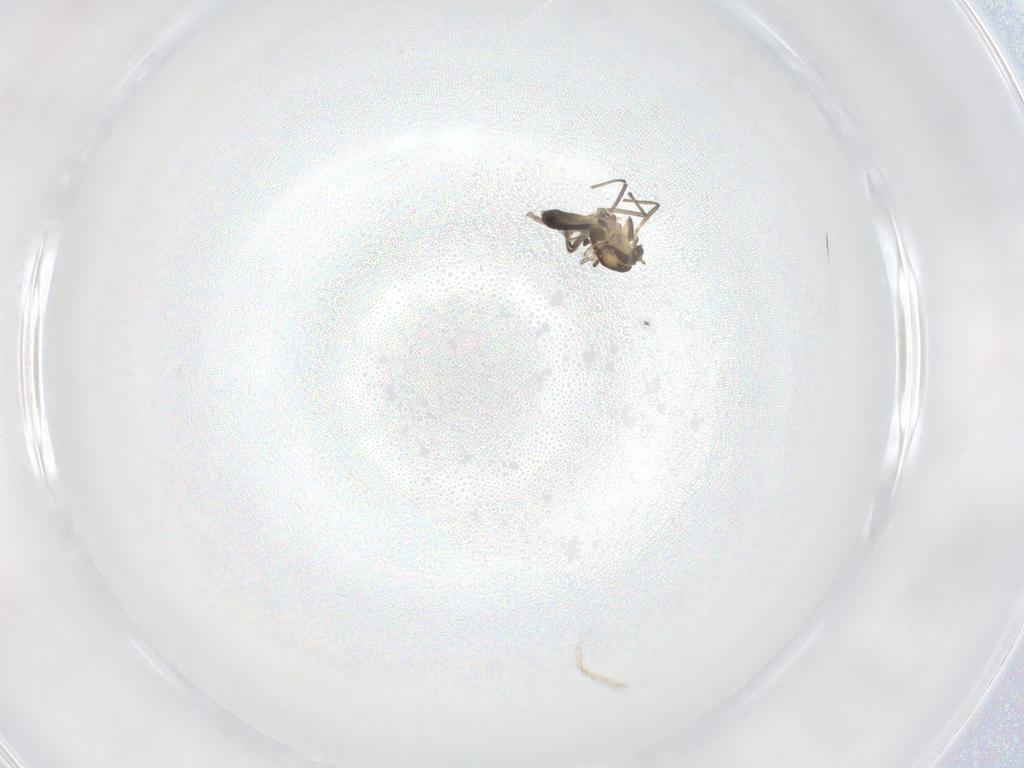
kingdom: Animalia
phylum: Arthropoda
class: Insecta
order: Diptera
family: Chironomidae
